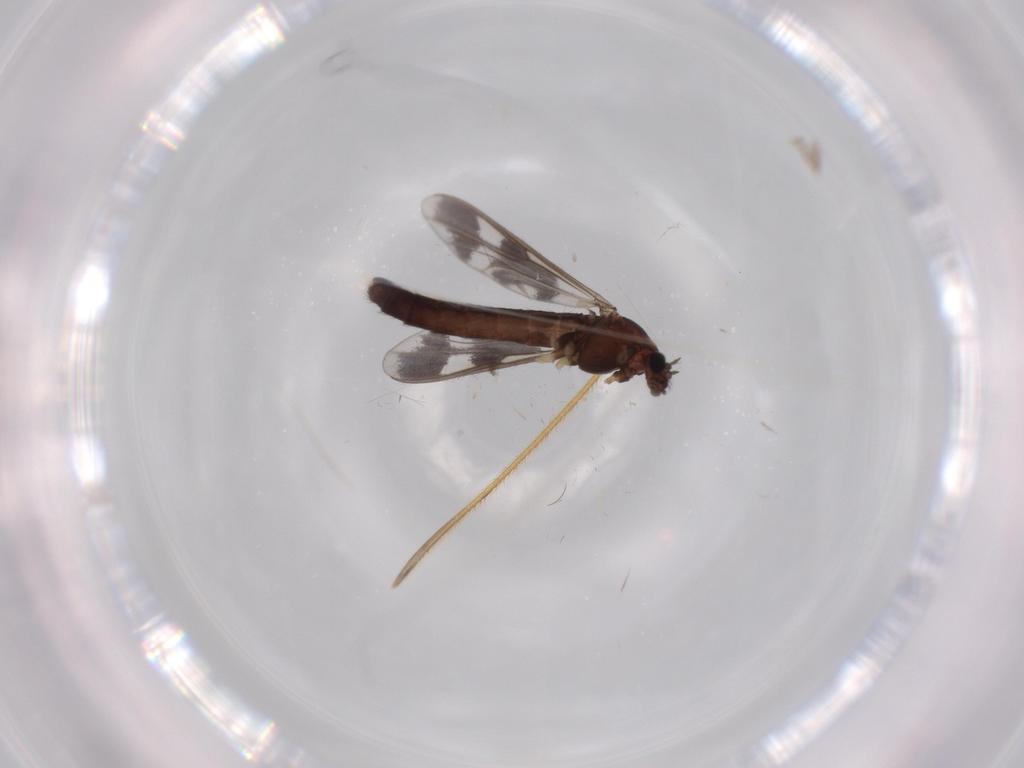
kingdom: Animalia
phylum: Arthropoda
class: Insecta
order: Diptera
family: Chironomidae
